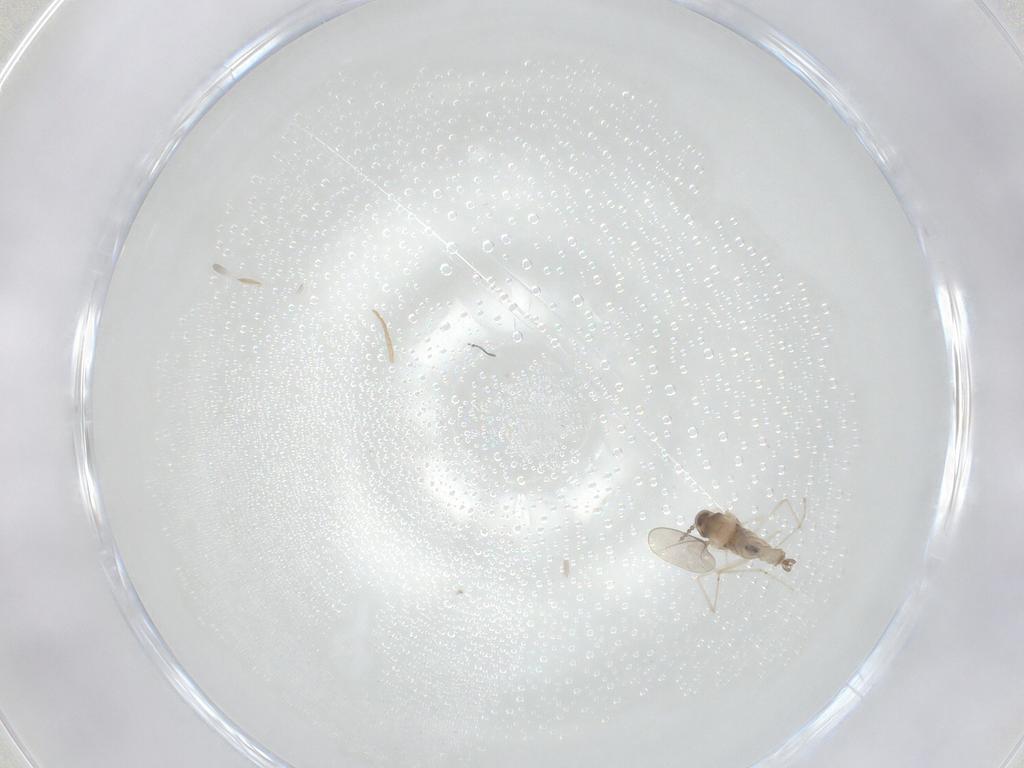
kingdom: Animalia
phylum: Arthropoda
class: Insecta
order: Diptera
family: Cecidomyiidae
